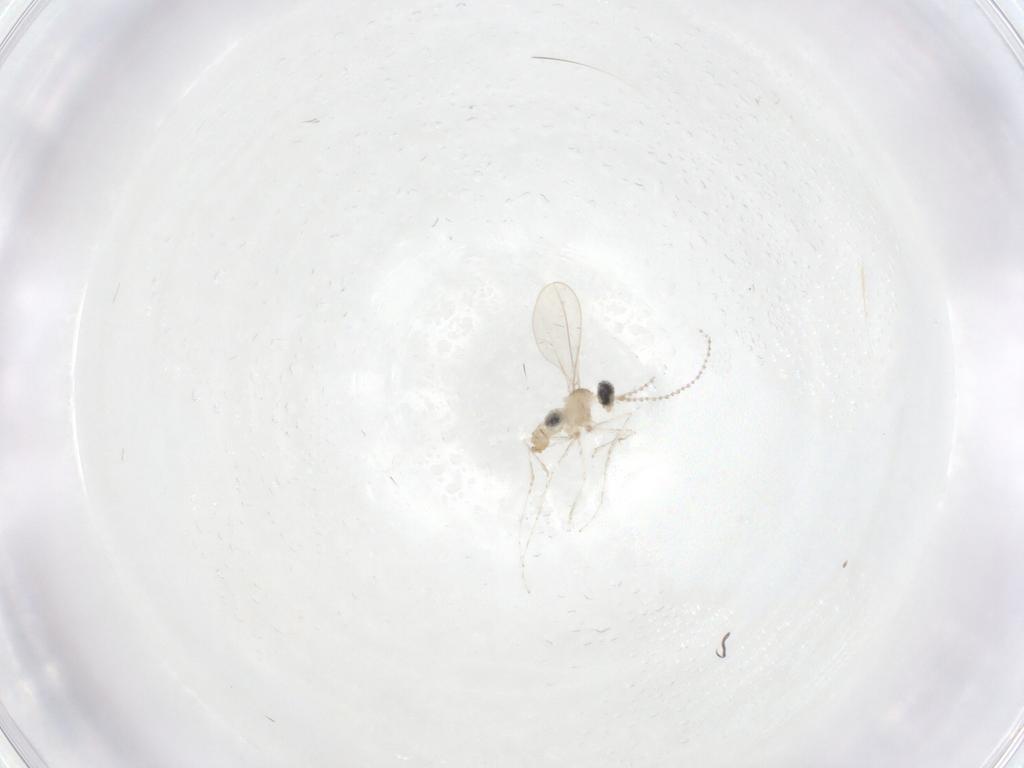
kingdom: Animalia
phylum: Arthropoda
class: Insecta
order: Diptera
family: Cecidomyiidae
